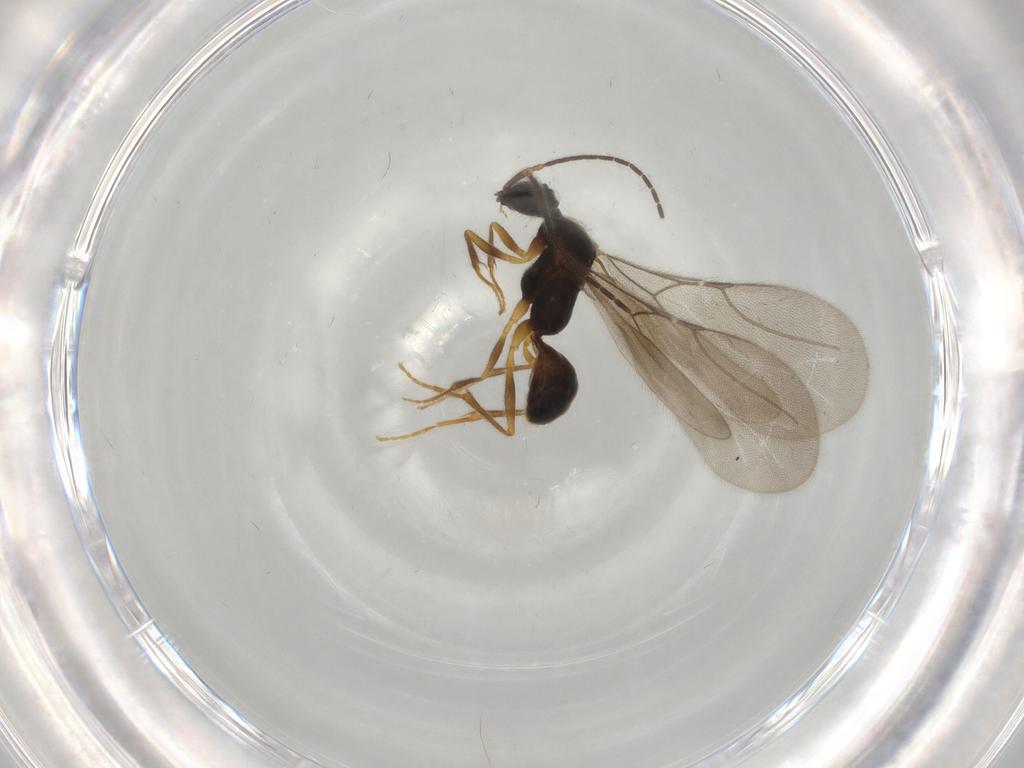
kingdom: Animalia
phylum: Arthropoda
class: Insecta
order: Hymenoptera
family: Bethylidae
